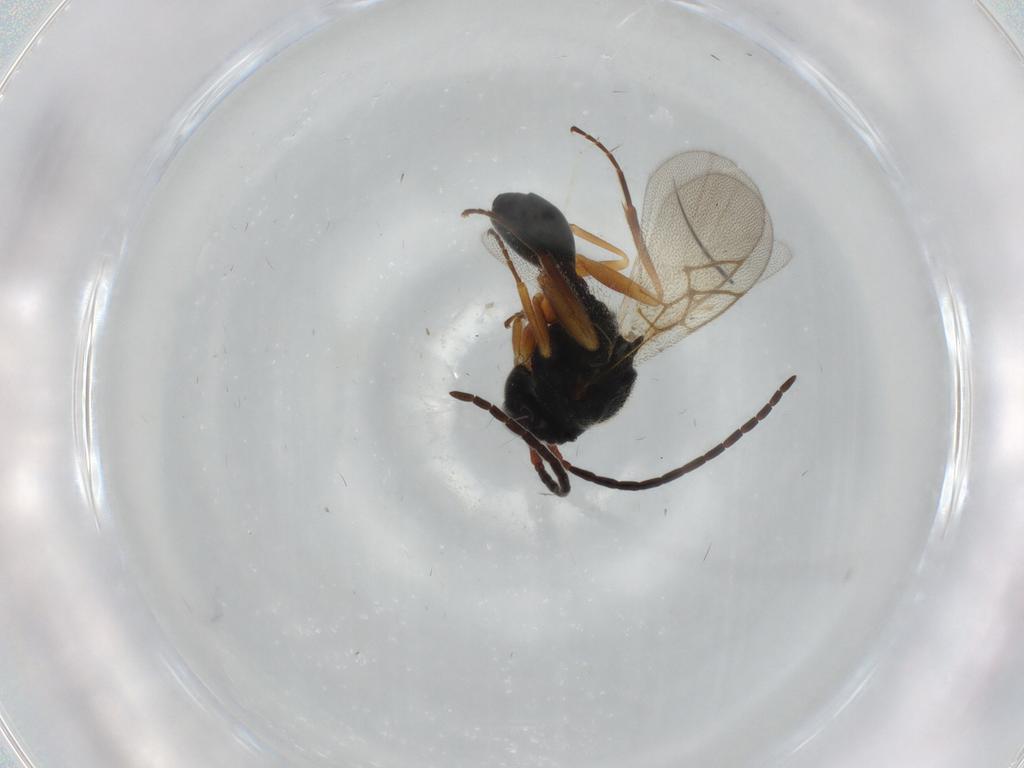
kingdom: Animalia
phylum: Arthropoda
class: Insecta
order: Hymenoptera
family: Figitidae
